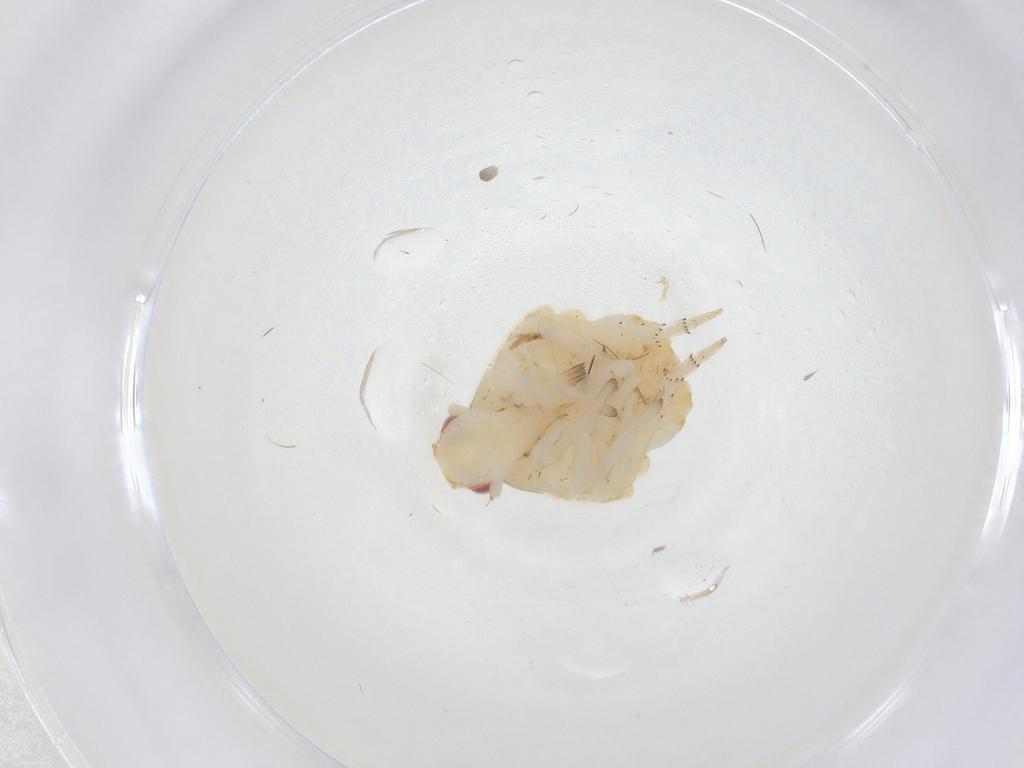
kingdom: Animalia
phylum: Arthropoda
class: Insecta
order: Hemiptera
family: Fulgoroidea_incertae_sedis
